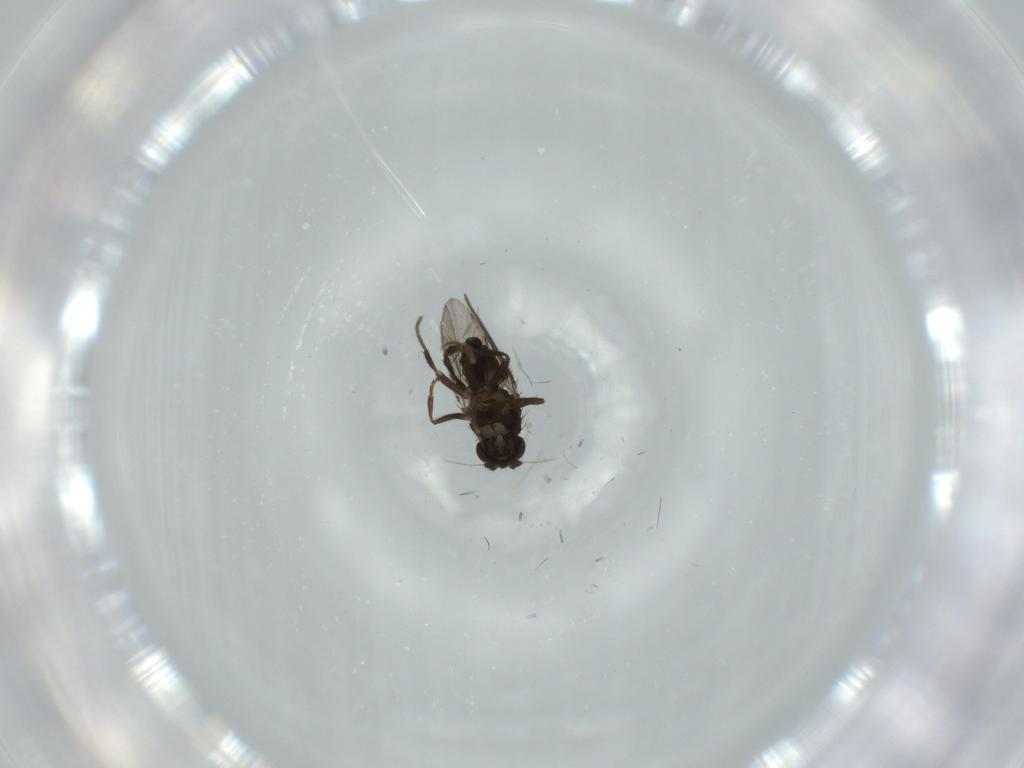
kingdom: Animalia
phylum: Arthropoda
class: Insecta
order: Diptera
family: Sphaeroceridae
